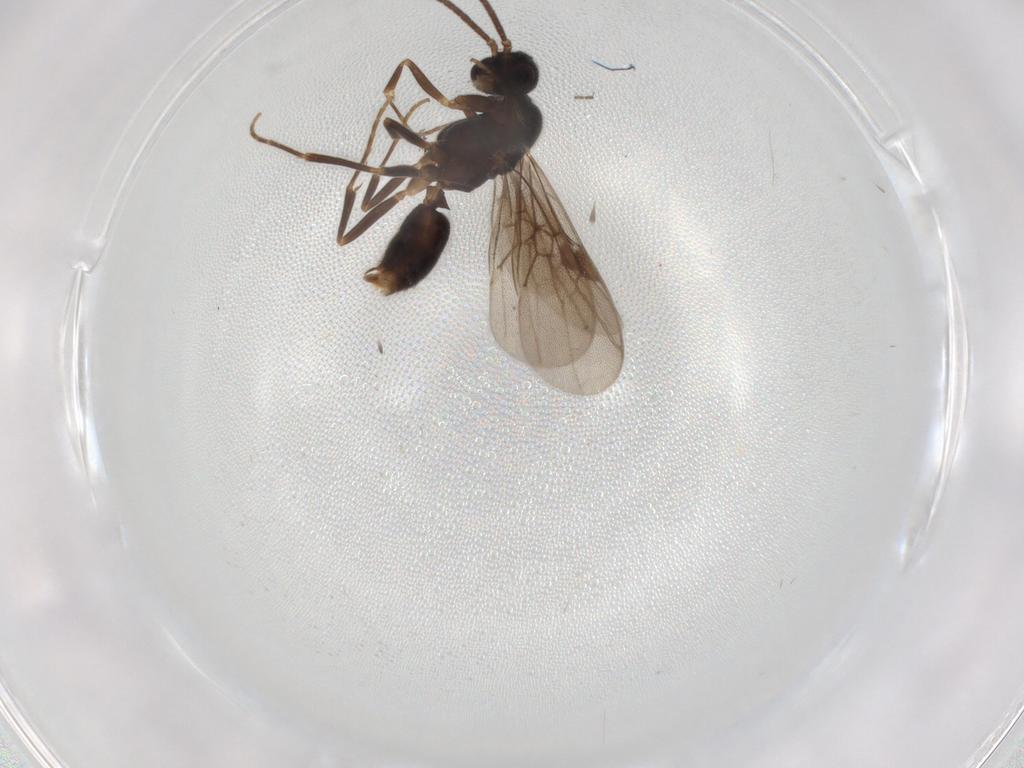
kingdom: Animalia
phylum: Arthropoda
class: Insecta
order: Hymenoptera
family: Formicidae
